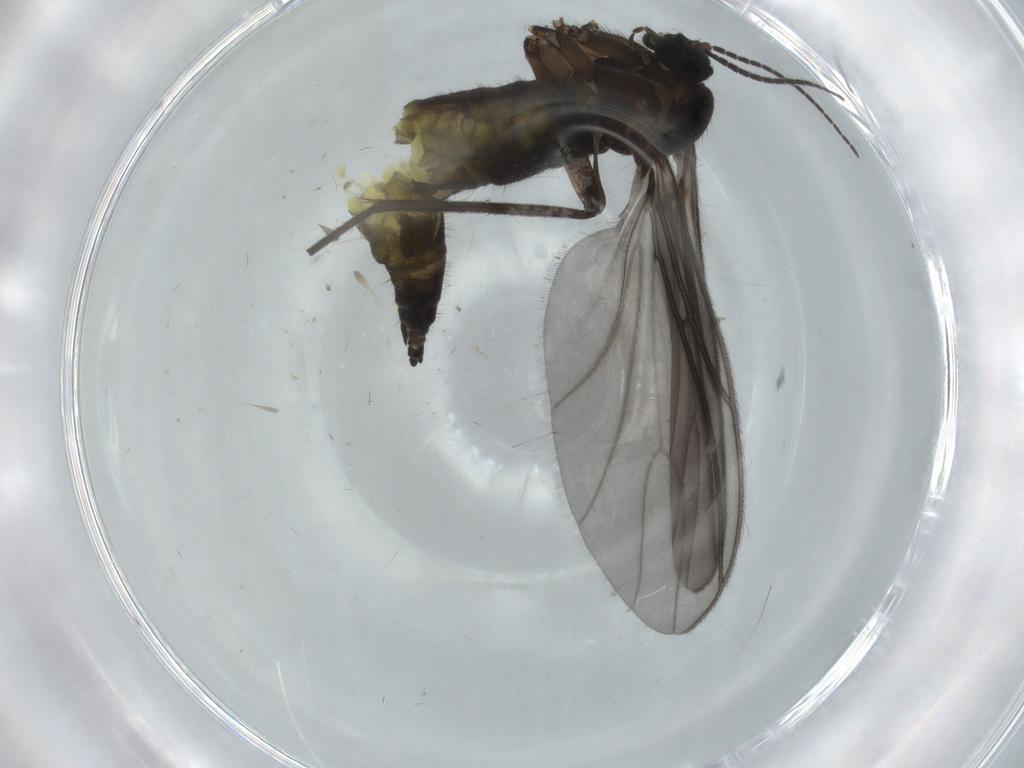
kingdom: Animalia
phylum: Arthropoda
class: Insecta
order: Diptera
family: Sciaridae
